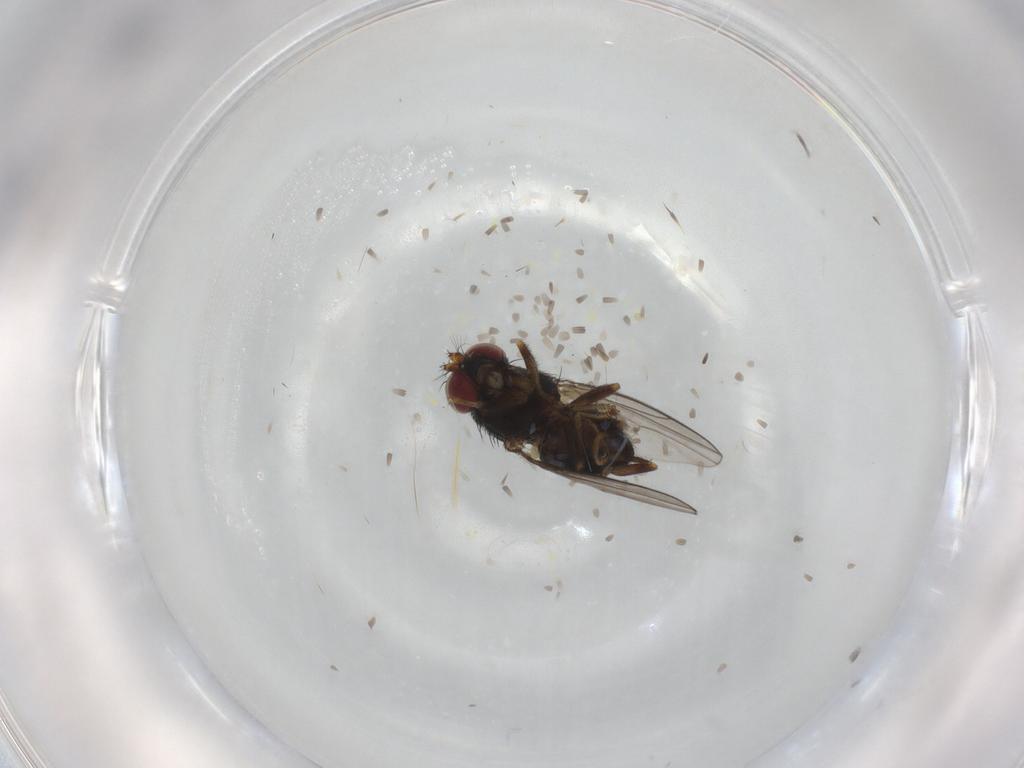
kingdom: Animalia
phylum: Arthropoda
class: Insecta
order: Diptera
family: Sciaridae
